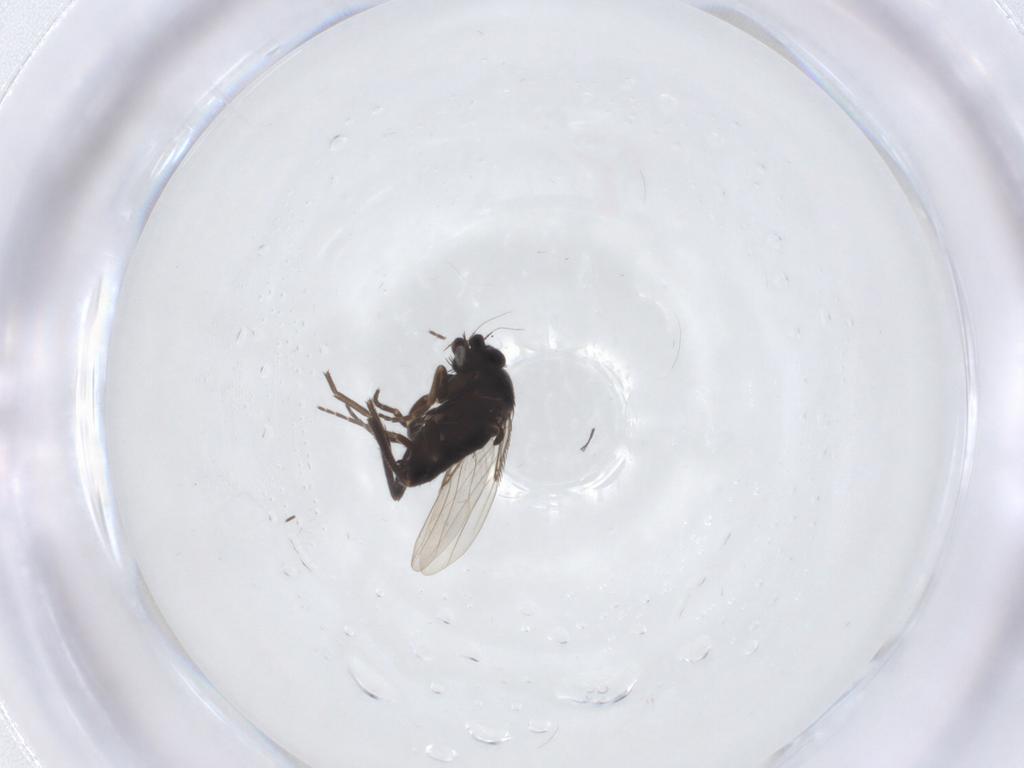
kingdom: Animalia
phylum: Arthropoda
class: Insecta
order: Diptera
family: Phoridae
